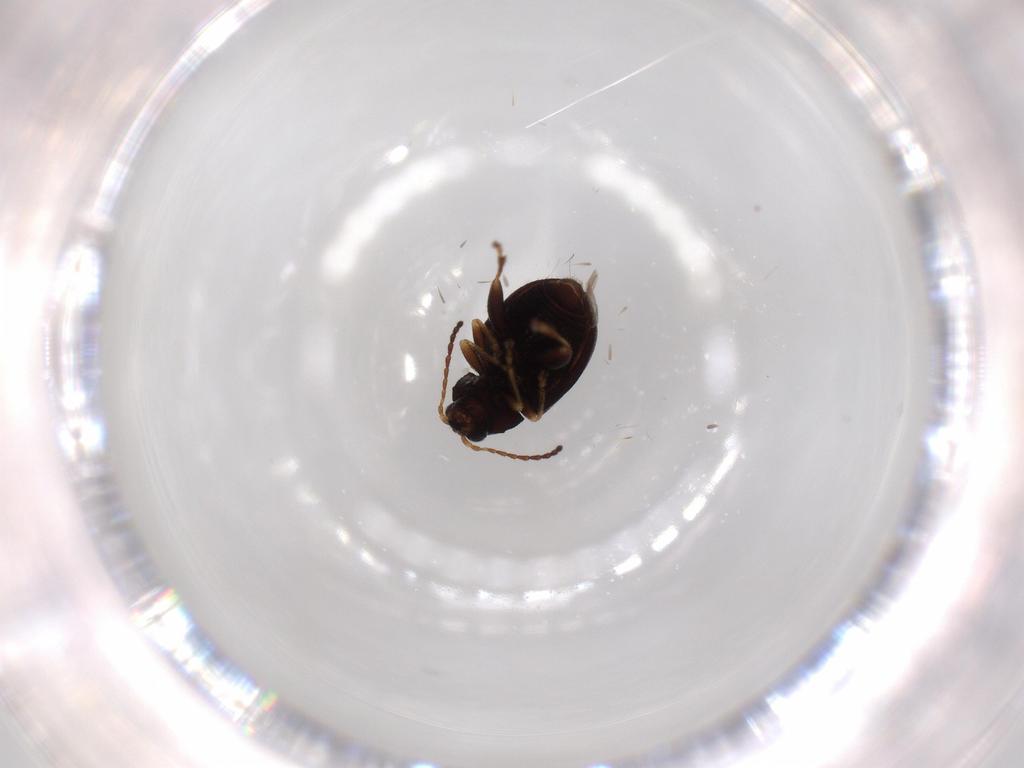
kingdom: Animalia
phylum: Arthropoda
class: Insecta
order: Coleoptera
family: Chrysomelidae
